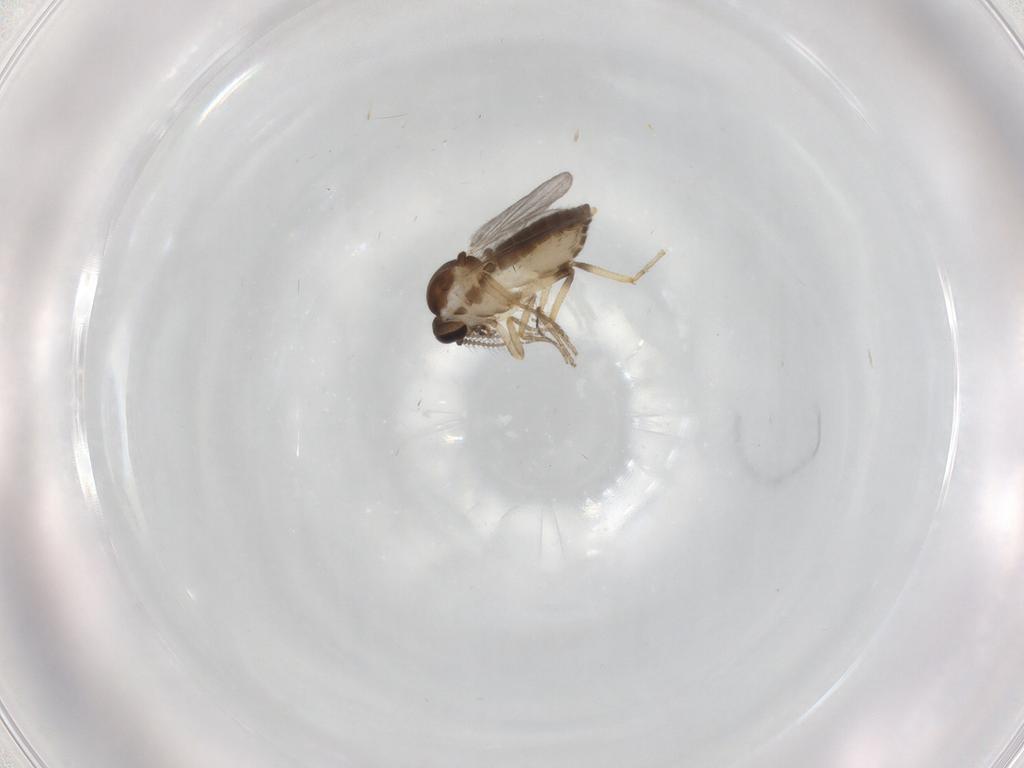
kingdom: Animalia
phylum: Arthropoda
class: Insecta
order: Diptera
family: Ceratopogonidae
